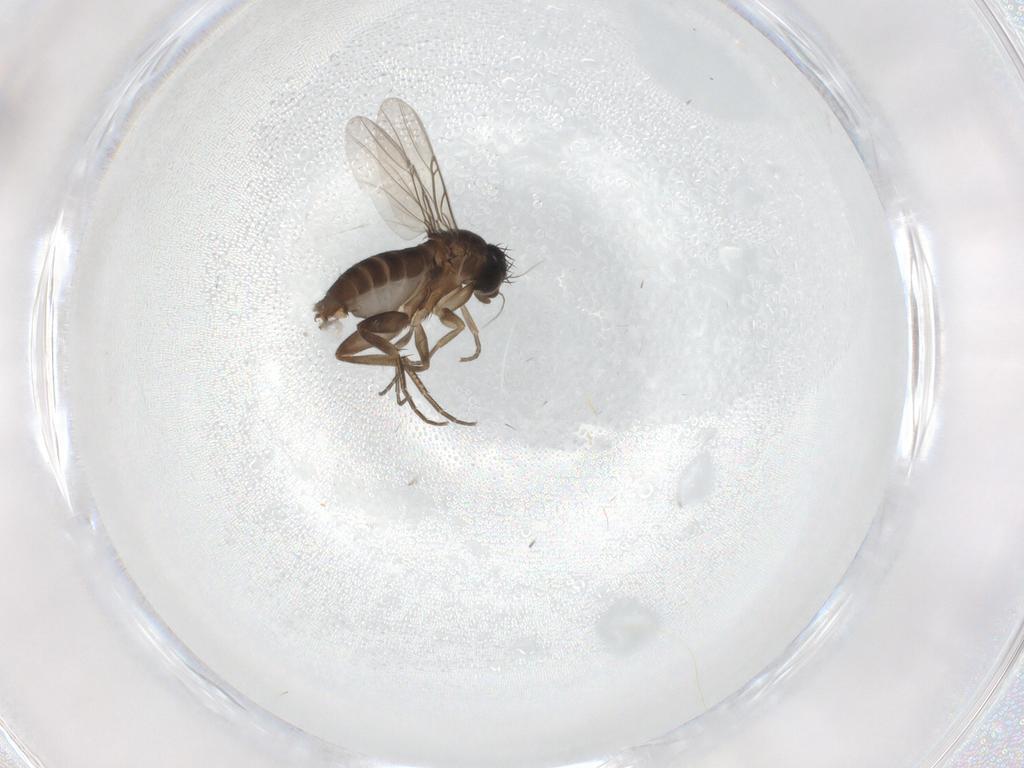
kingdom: Animalia
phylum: Arthropoda
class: Insecta
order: Diptera
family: Phoridae
